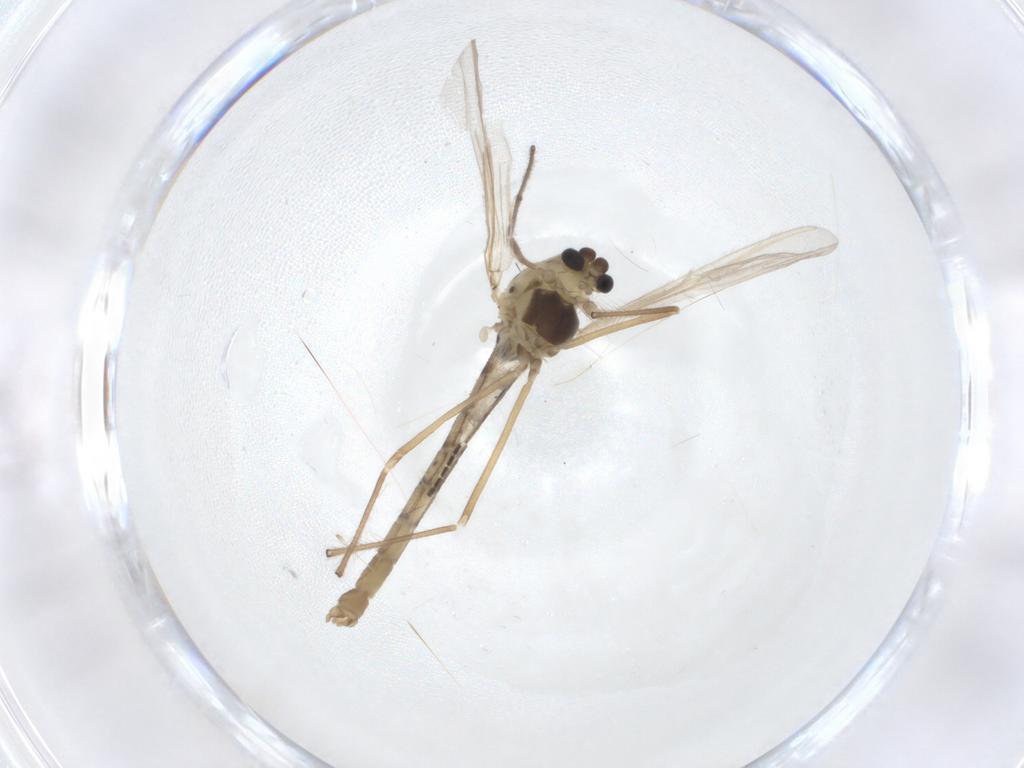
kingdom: Animalia
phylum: Arthropoda
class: Insecta
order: Diptera
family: Sciaridae
